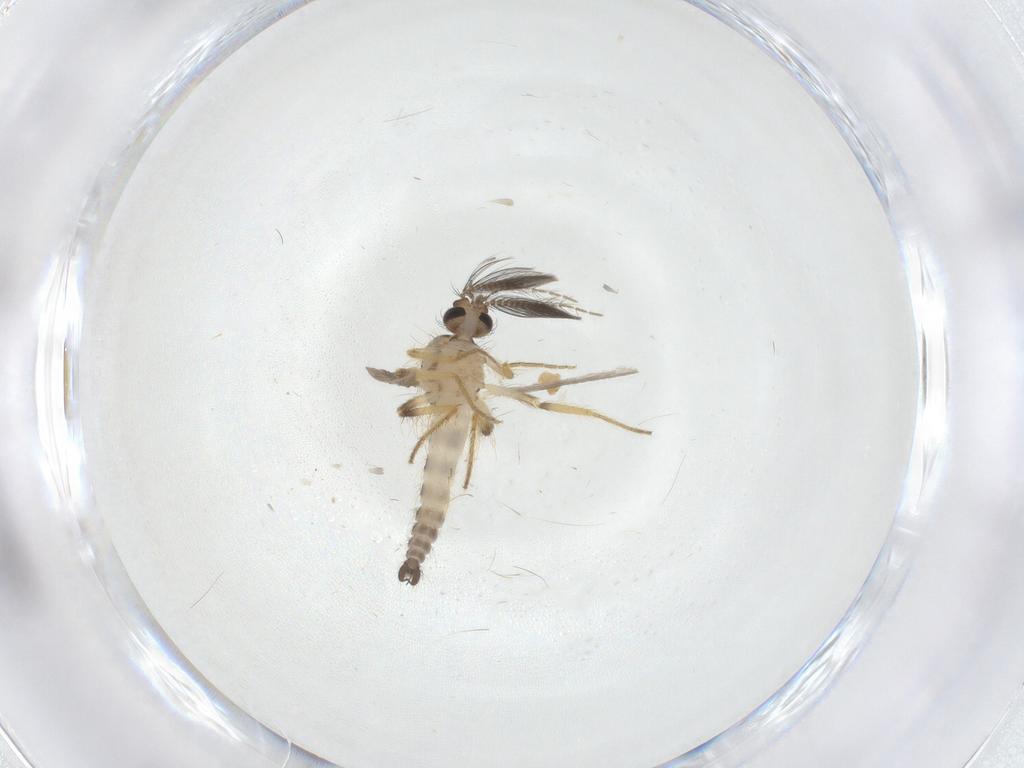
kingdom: Animalia
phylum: Arthropoda
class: Insecta
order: Diptera
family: Ceratopogonidae
